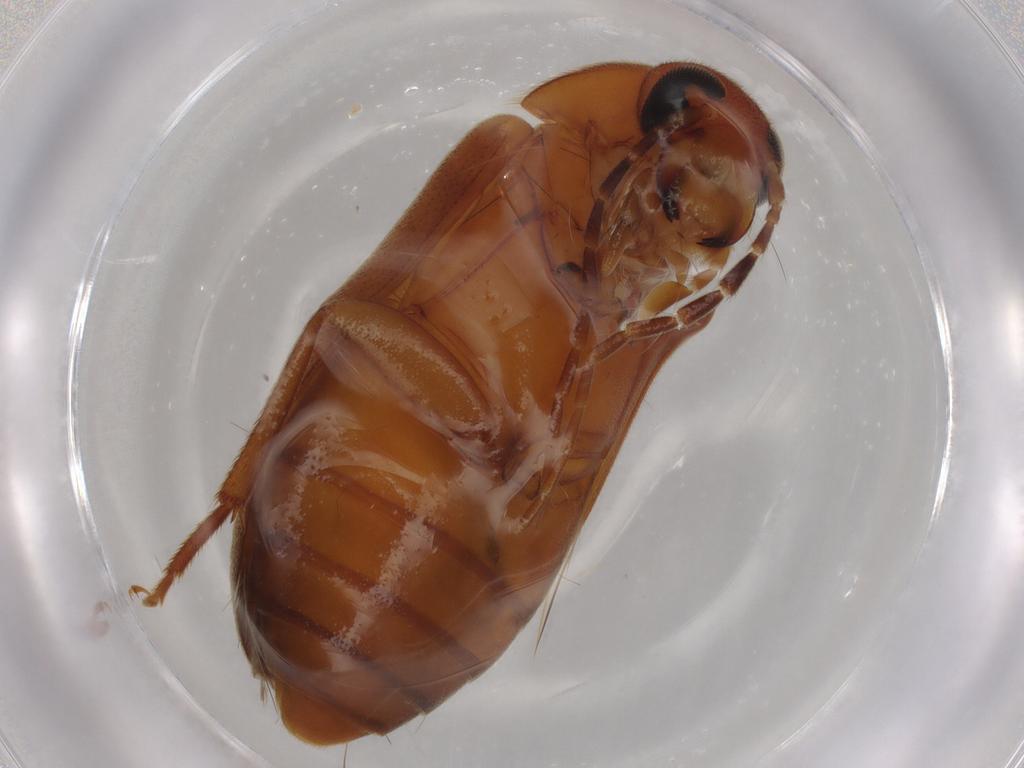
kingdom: Animalia
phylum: Arthropoda
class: Insecta
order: Coleoptera
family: Scraptiidae
